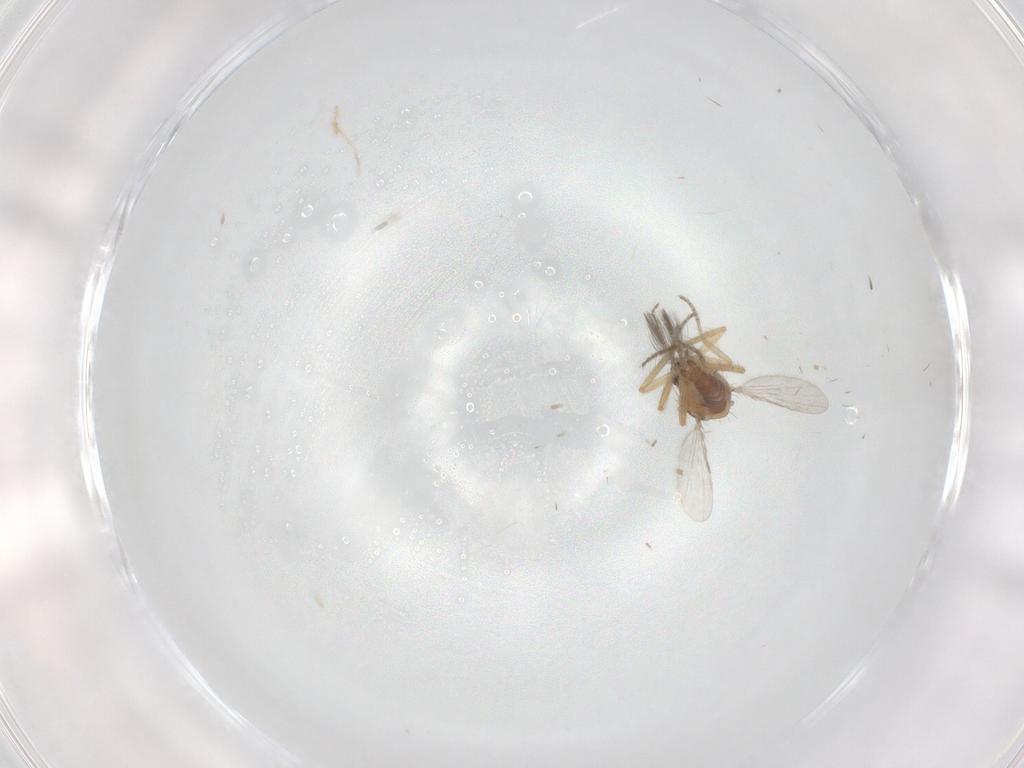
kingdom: Animalia
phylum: Arthropoda
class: Insecta
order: Diptera
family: Ceratopogonidae
